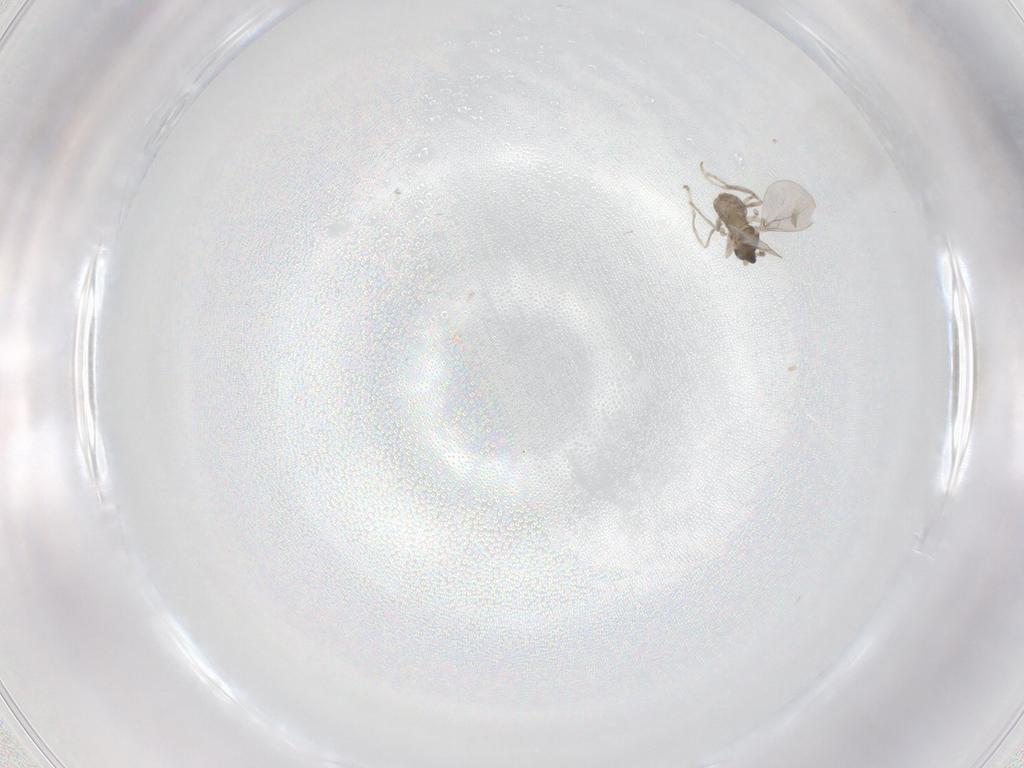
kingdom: Animalia
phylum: Arthropoda
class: Insecta
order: Diptera
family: Cecidomyiidae
